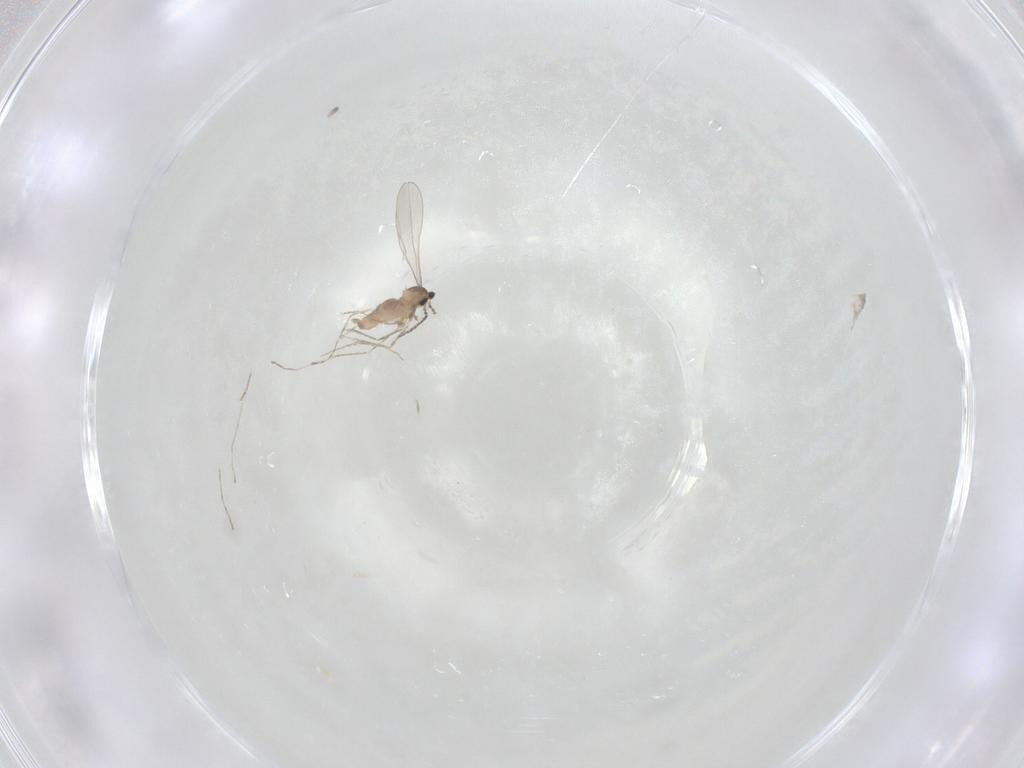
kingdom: Animalia
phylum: Arthropoda
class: Insecta
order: Diptera
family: Cecidomyiidae
